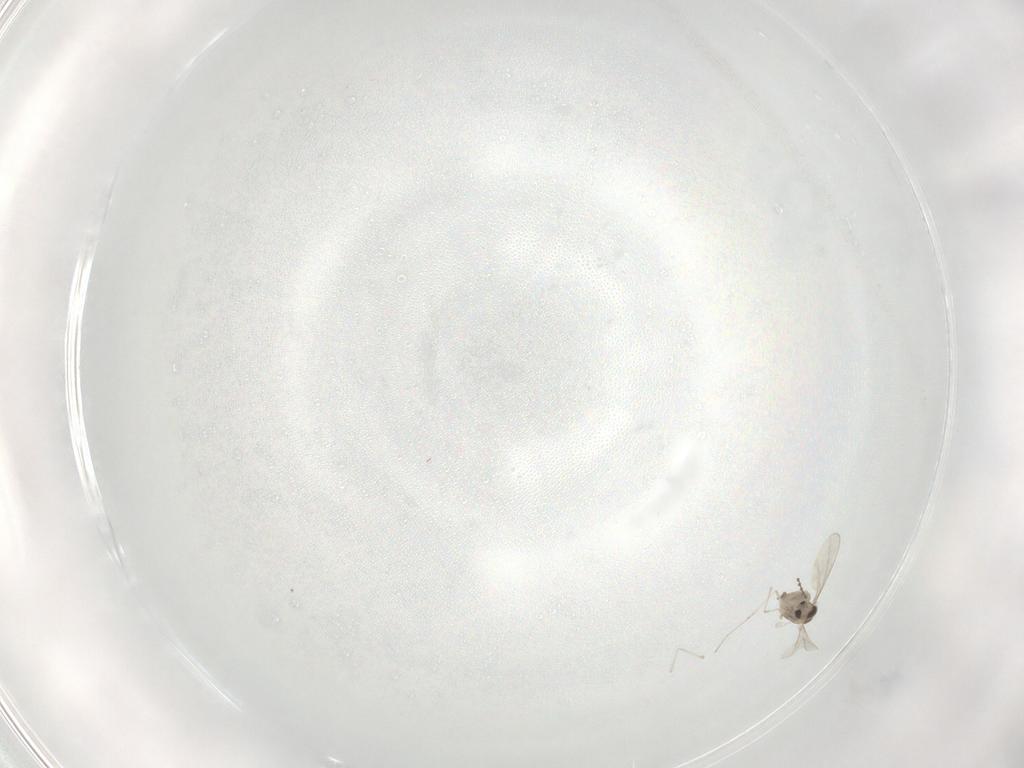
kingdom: Animalia
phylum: Arthropoda
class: Insecta
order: Diptera
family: Cecidomyiidae
